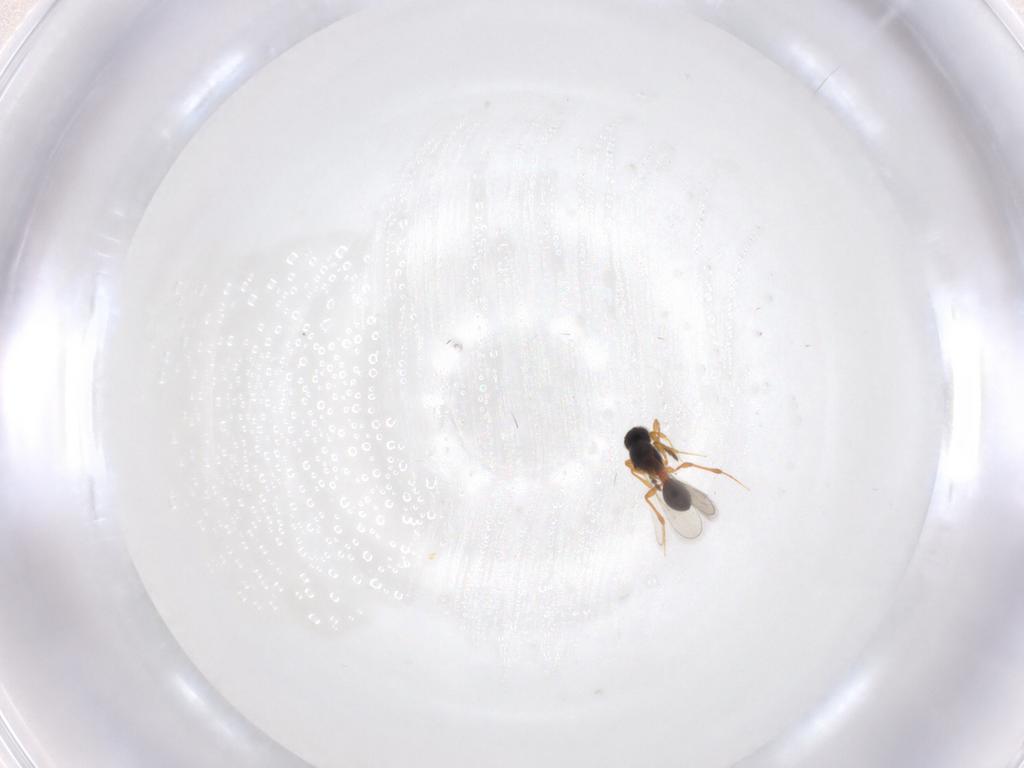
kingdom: Animalia
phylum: Arthropoda
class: Insecta
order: Hymenoptera
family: Platygastridae
